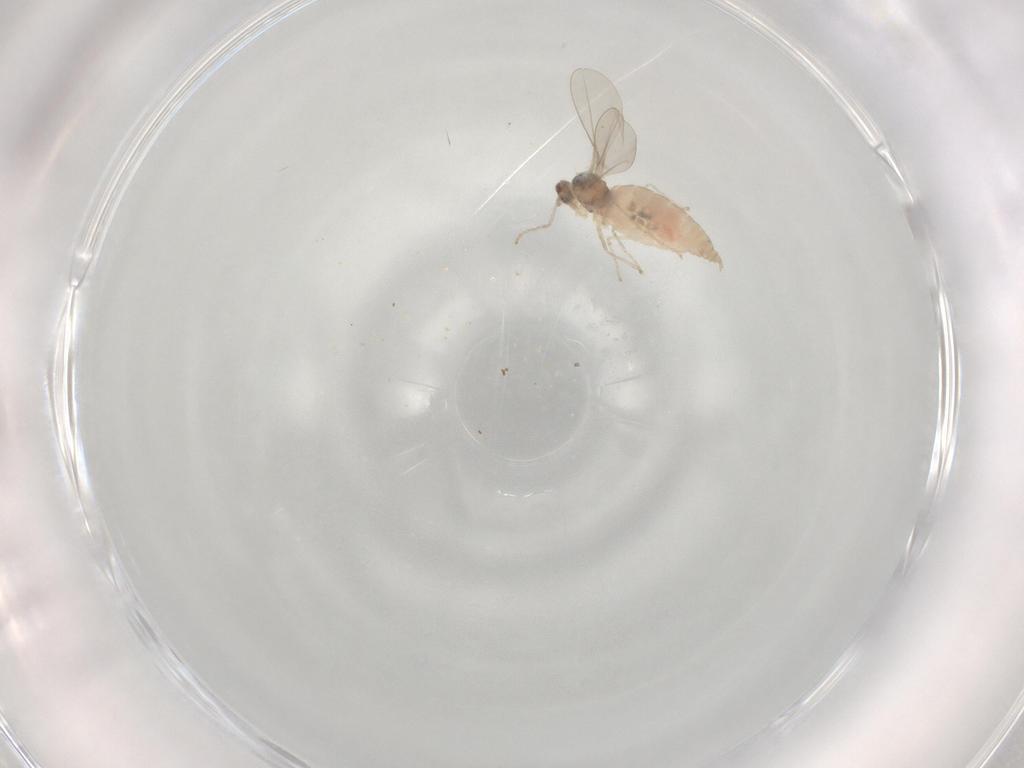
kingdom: Animalia
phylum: Arthropoda
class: Insecta
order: Diptera
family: Cecidomyiidae
